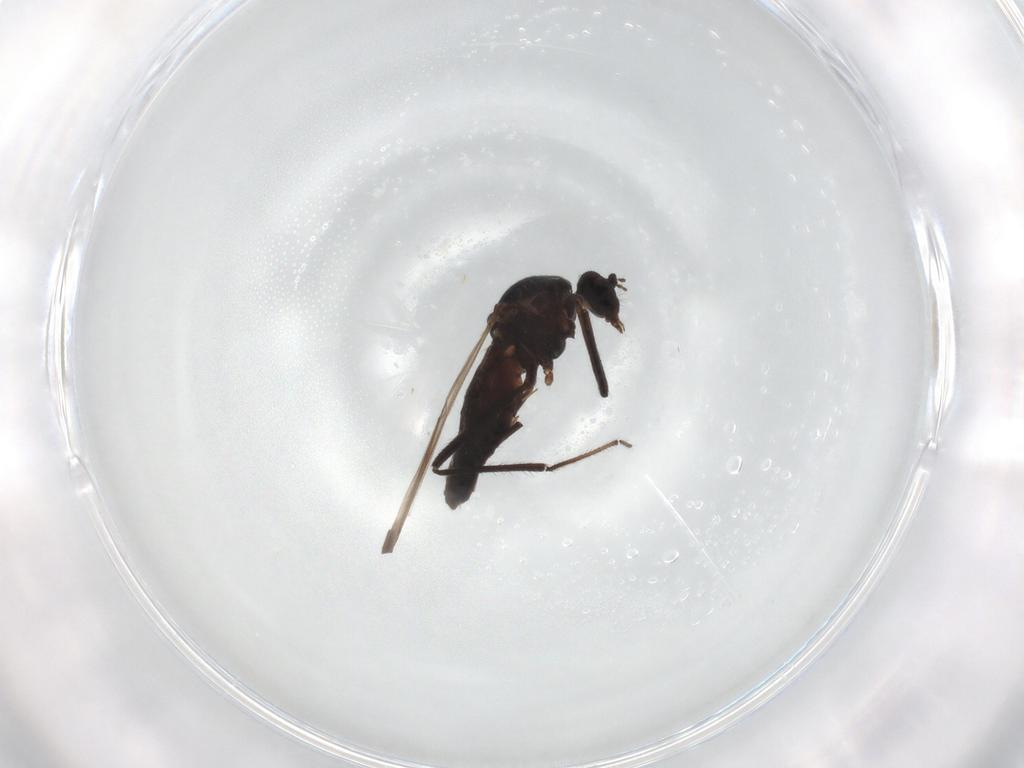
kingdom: Animalia
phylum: Arthropoda
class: Insecta
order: Diptera
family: Ceratopogonidae
